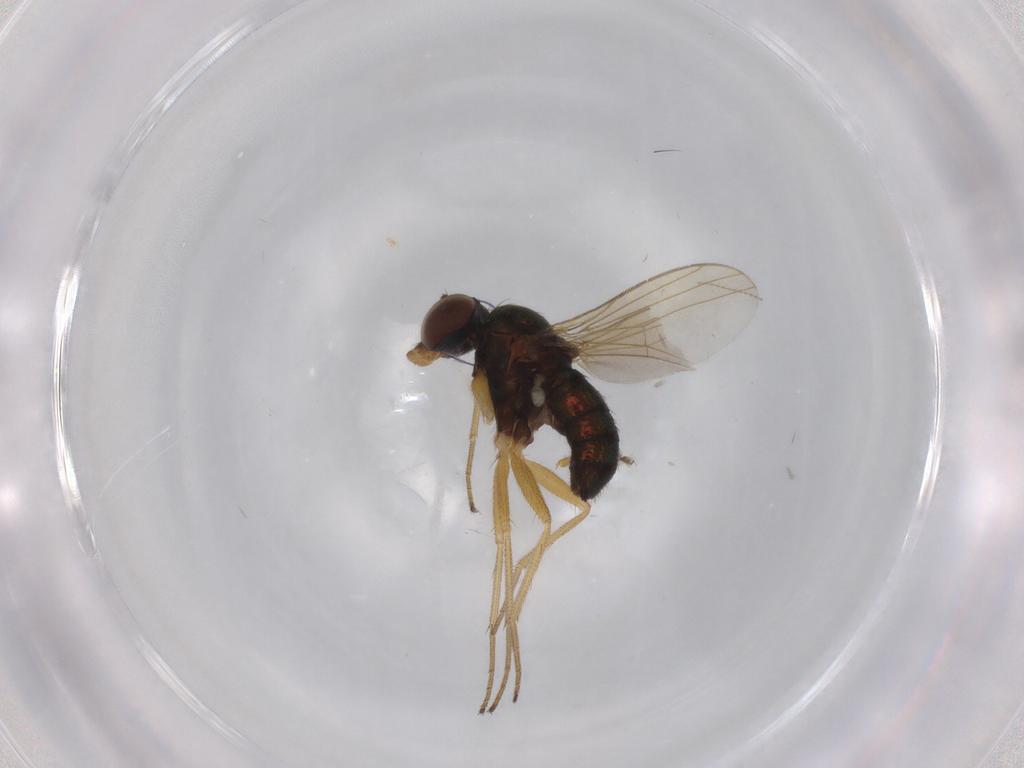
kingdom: Animalia
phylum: Arthropoda
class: Insecta
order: Diptera
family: Dolichopodidae
